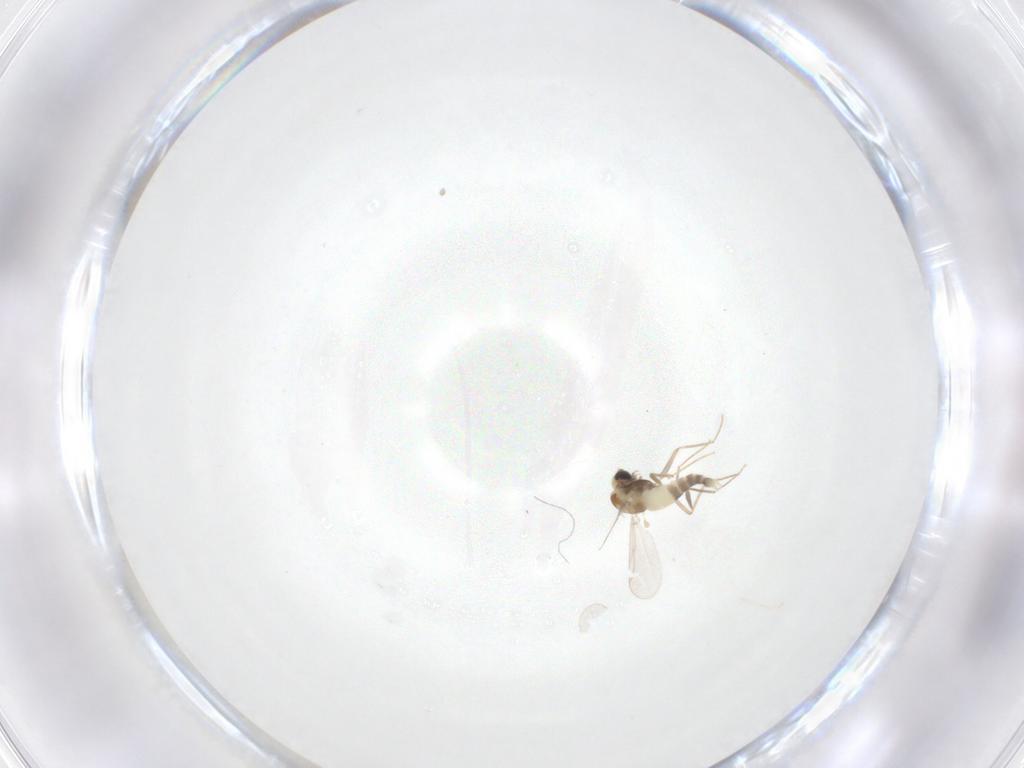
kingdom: Animalia
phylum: Arthropoda
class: Insecta
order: Diptera
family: Chironomidae
